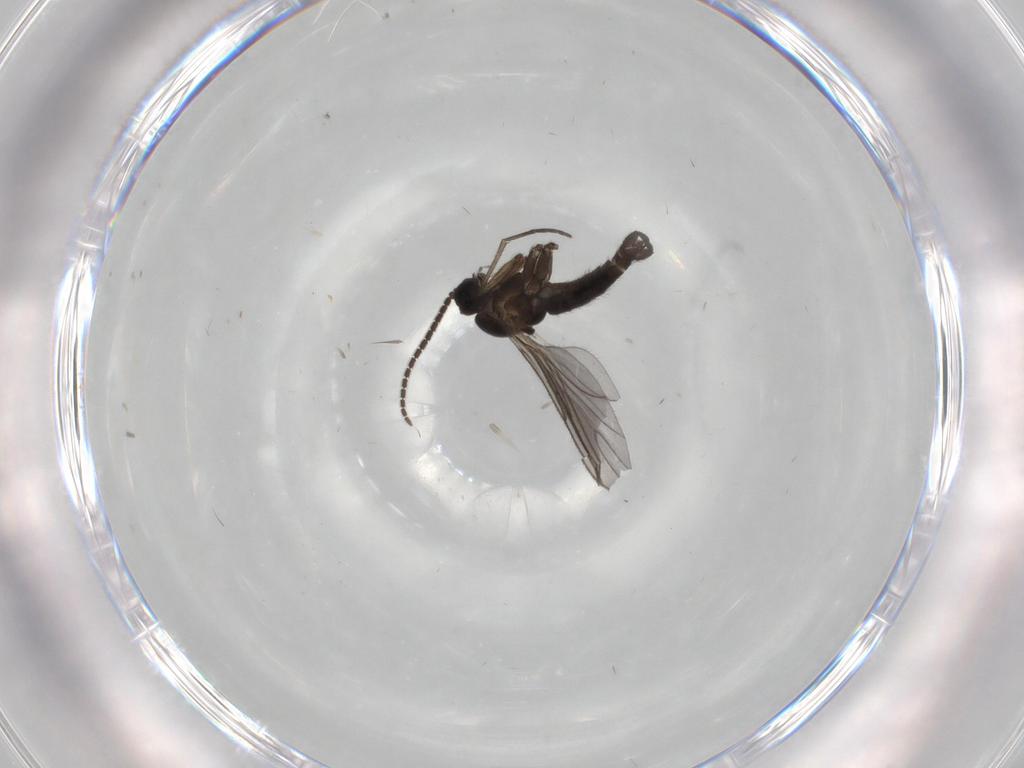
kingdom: Animalia
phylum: Arthropoda
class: Insecta
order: Diptera
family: Sciaridae
